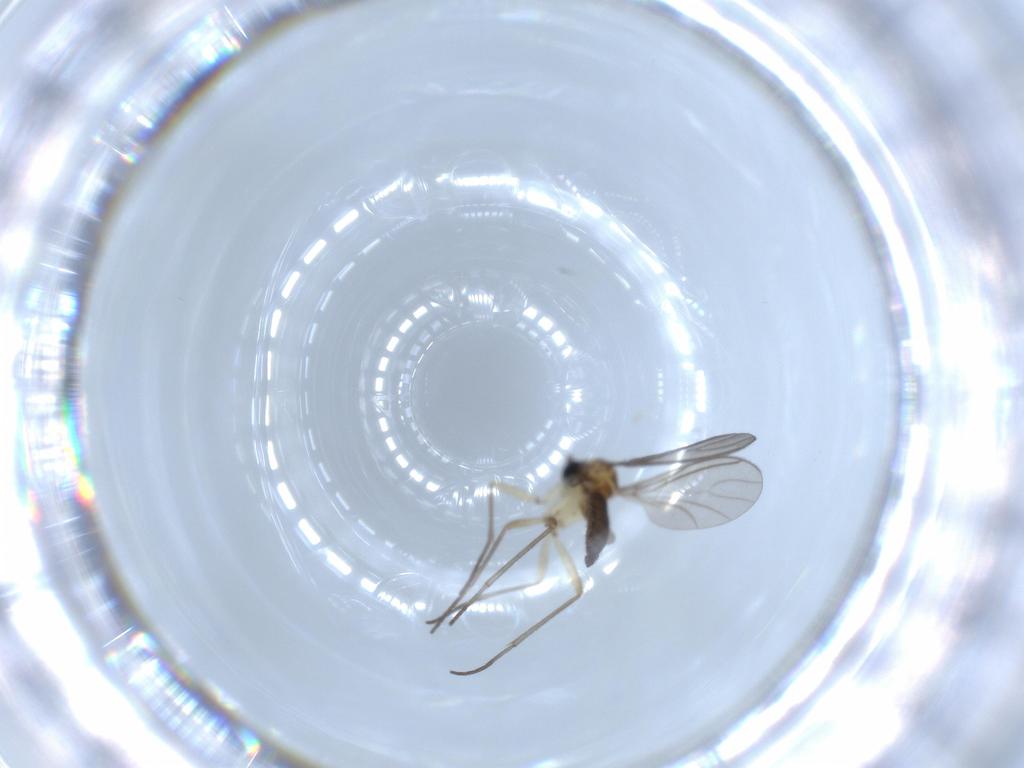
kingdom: Animalia
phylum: Arthropoda
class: Insecta
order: Diptera
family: Sciaridae
